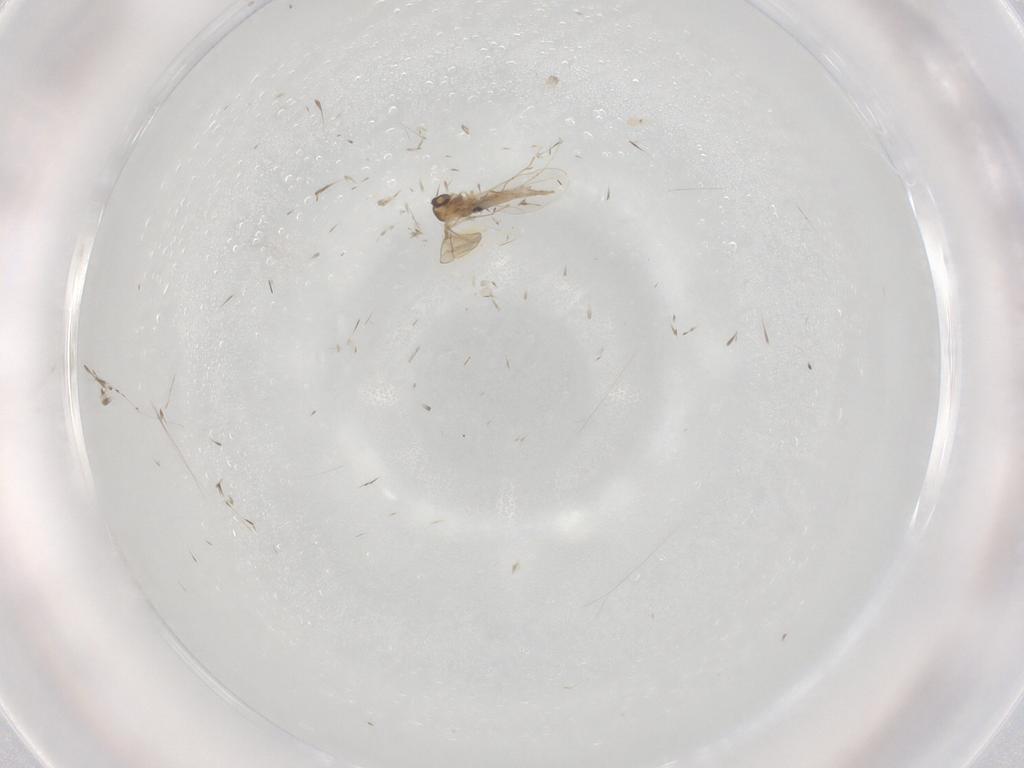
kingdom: Animalia
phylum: Arthropoda
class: Insecta
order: Diptera
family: Cecidomyiidae
